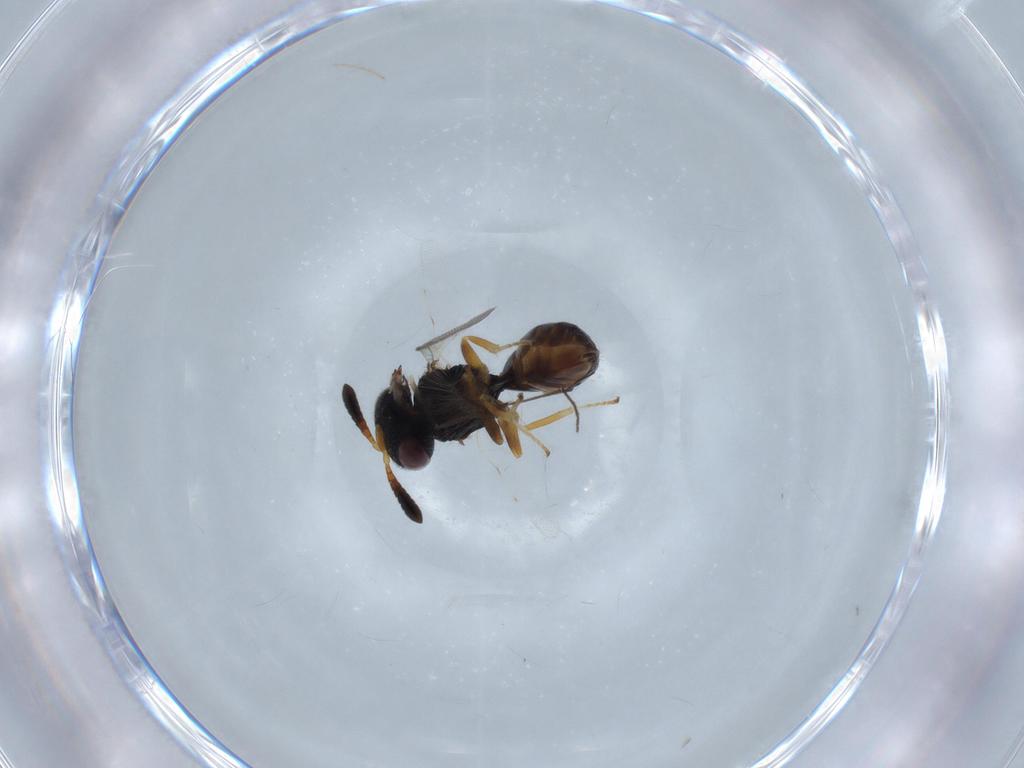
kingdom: Animalia
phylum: Arthropoda
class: Insecta
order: Hymenoptera
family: Agaonidae
